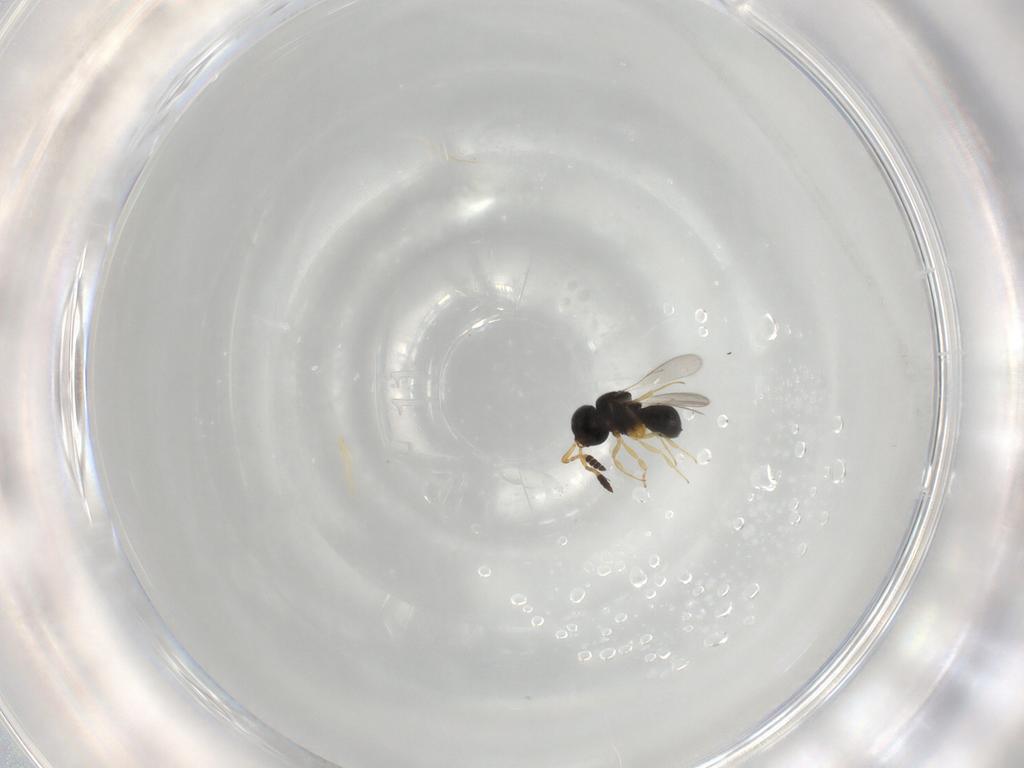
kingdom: Animalia
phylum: Arthropoda
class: Insecta
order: Hymenoptera
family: Scelionidae
